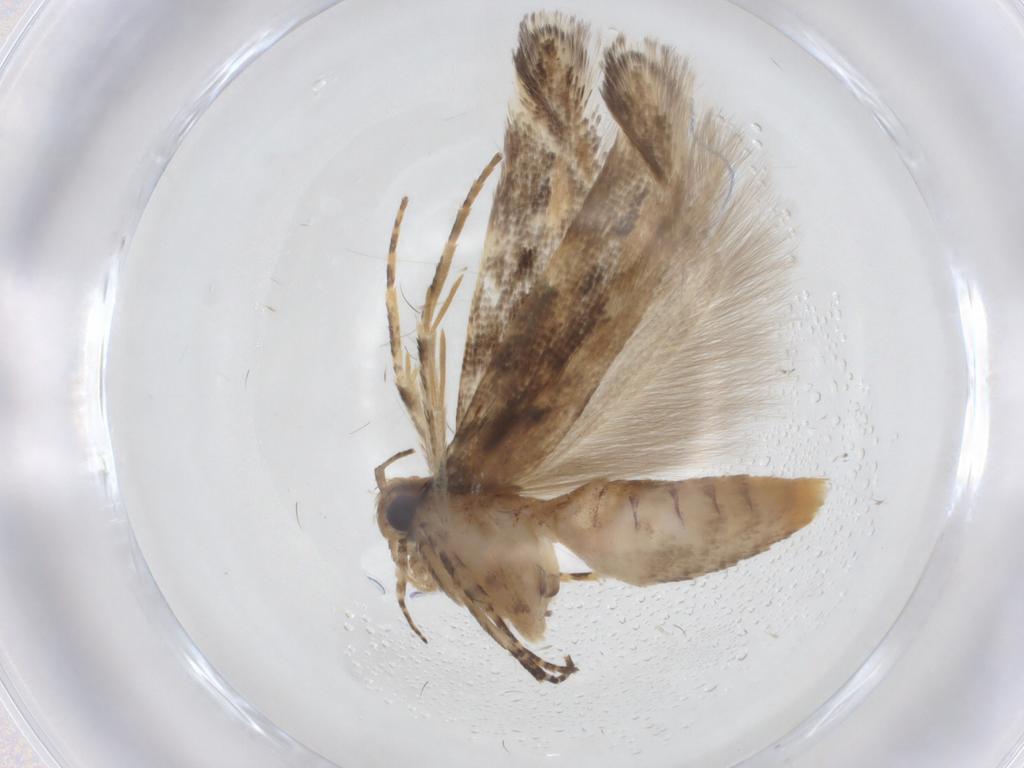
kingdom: Animalia
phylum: Arthropoda
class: Insecta
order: Lepidoptera
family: Gelechiidae
